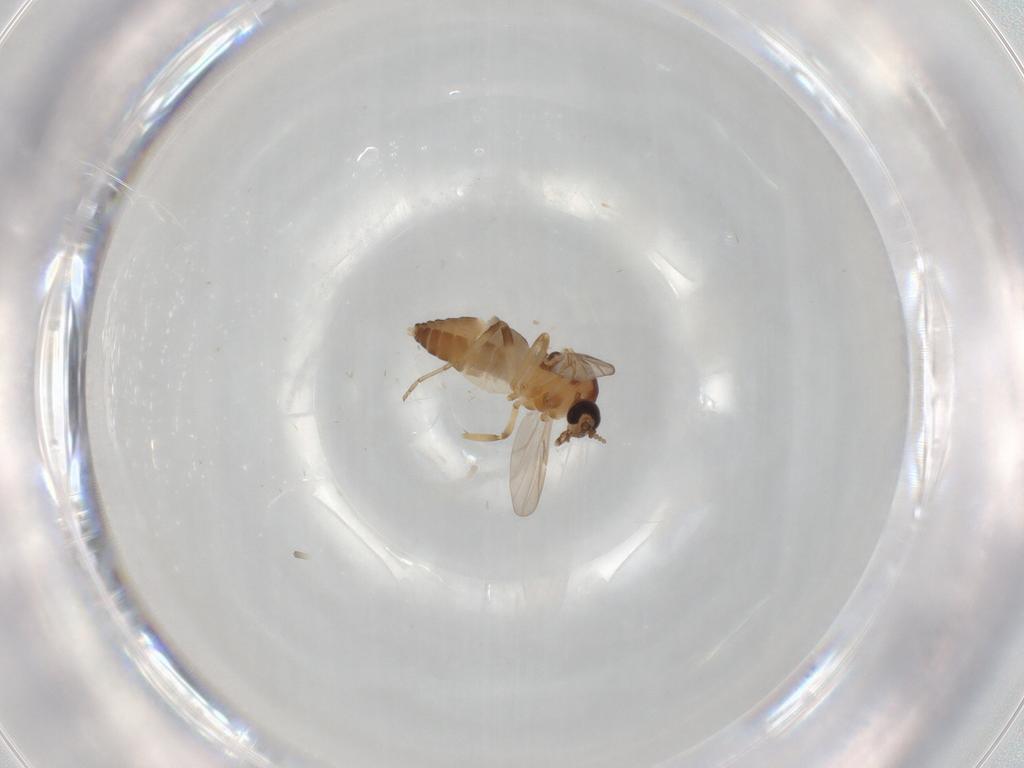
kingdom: Animalia
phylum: Arthropoda
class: Insecta
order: Diptera
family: Ceratopogonidae
